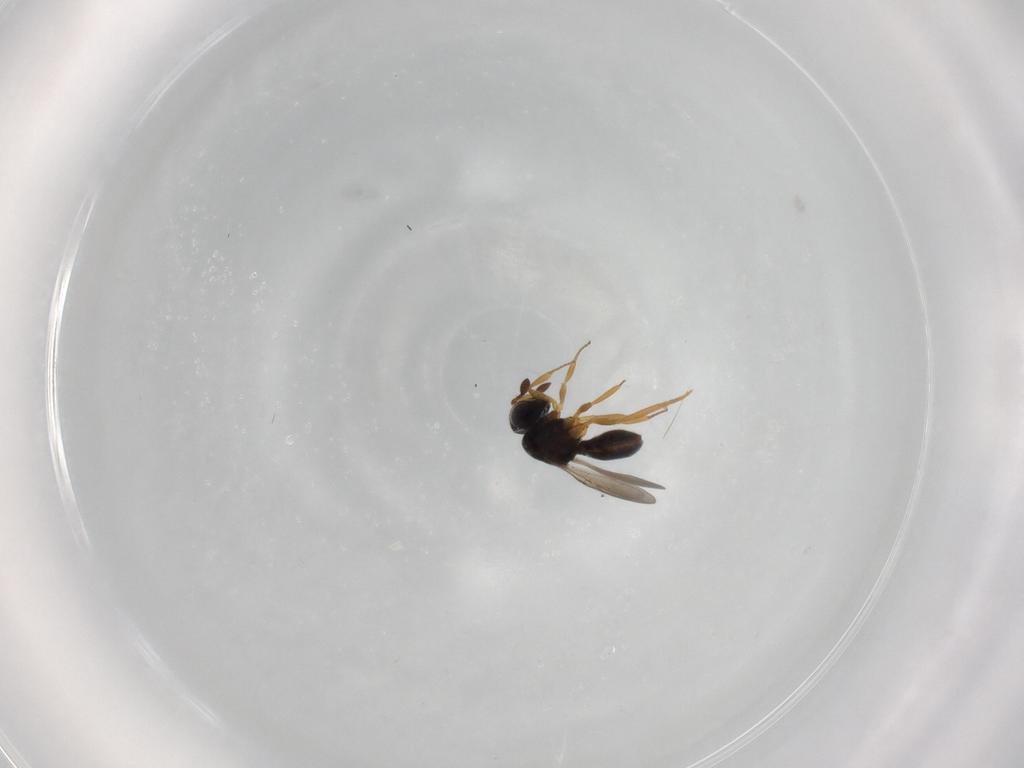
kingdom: Animalia
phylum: Arthropoda
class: Insecta
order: Hymenoptera
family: Scelionidae
